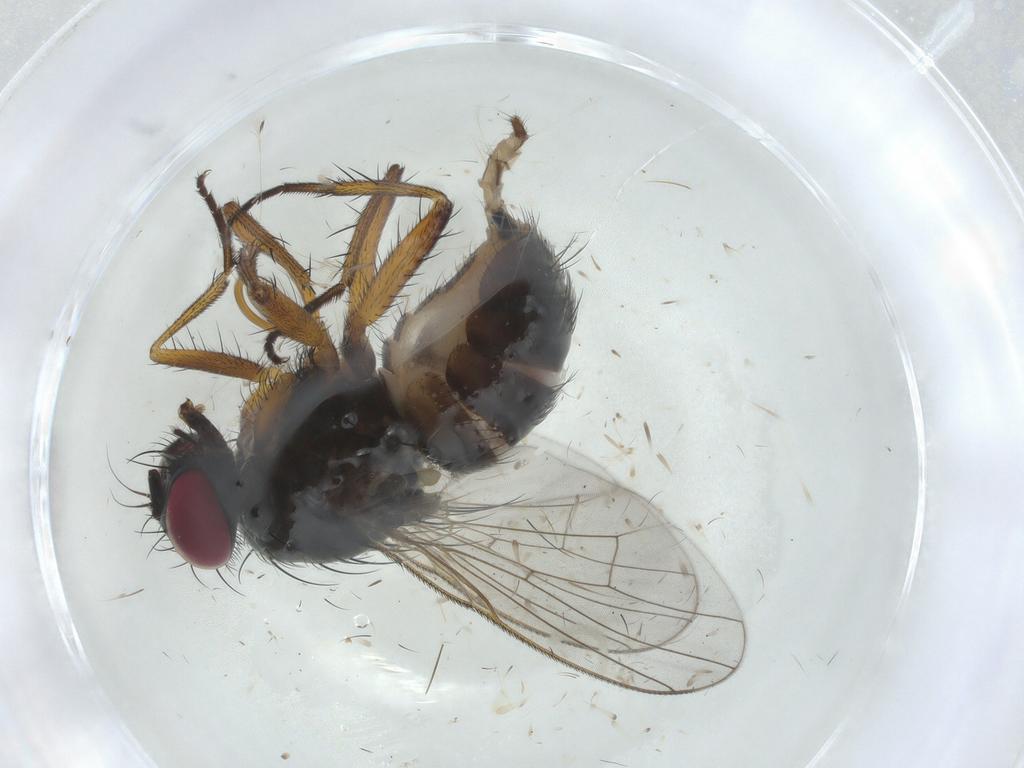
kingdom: Animalia
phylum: Arthropoda
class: Insecta
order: Diptera
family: Muscidae
